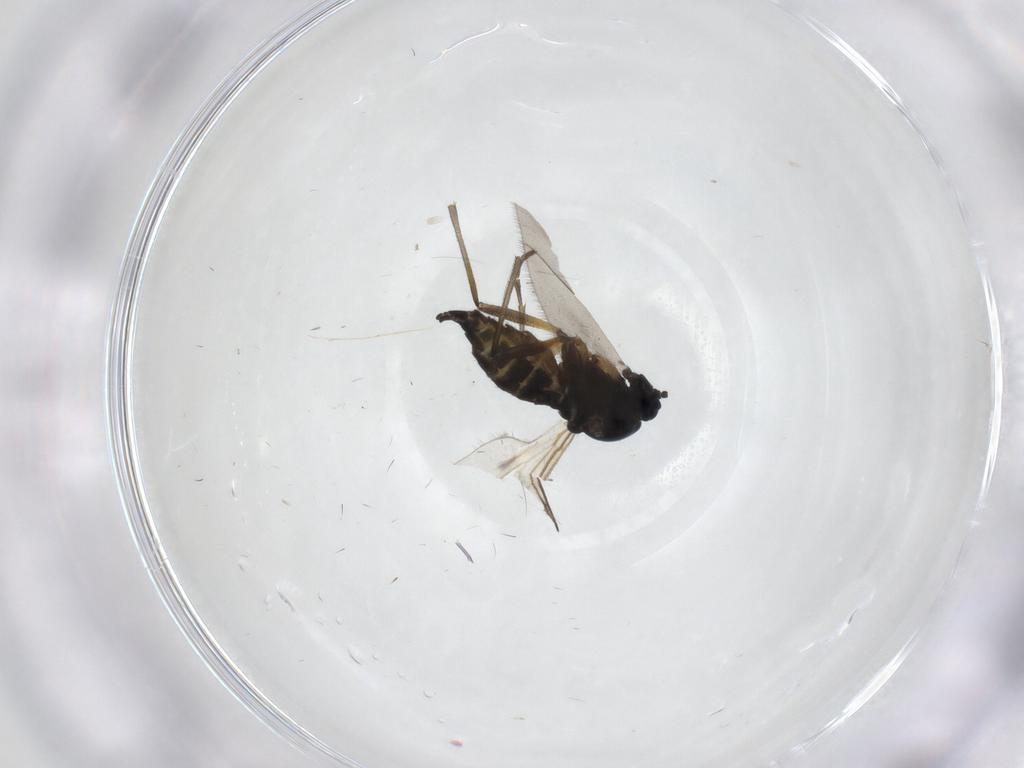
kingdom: Animalia
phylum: Arthropoda
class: Insecta
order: Diptera
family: Sciaridae
